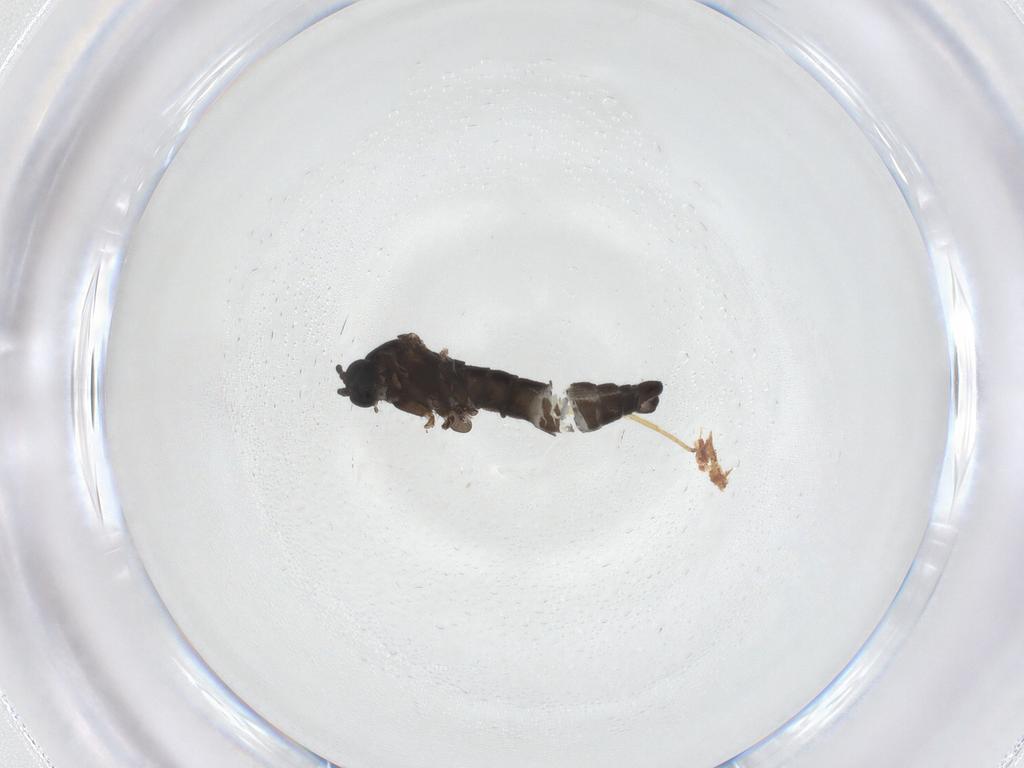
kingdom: Animalia
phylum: Arthropoda
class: Insecta
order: Diptera
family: Sciaridae
